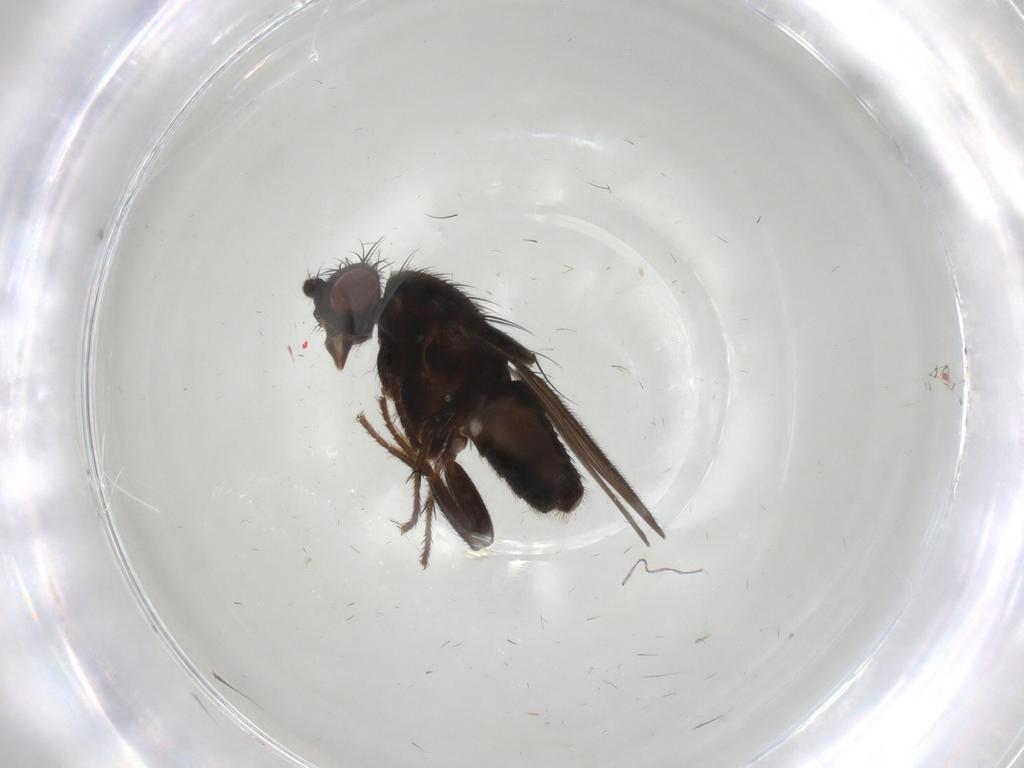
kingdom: Animalia
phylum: Arthropoda
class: Insecta
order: Diptera
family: Sphaeroceridae
